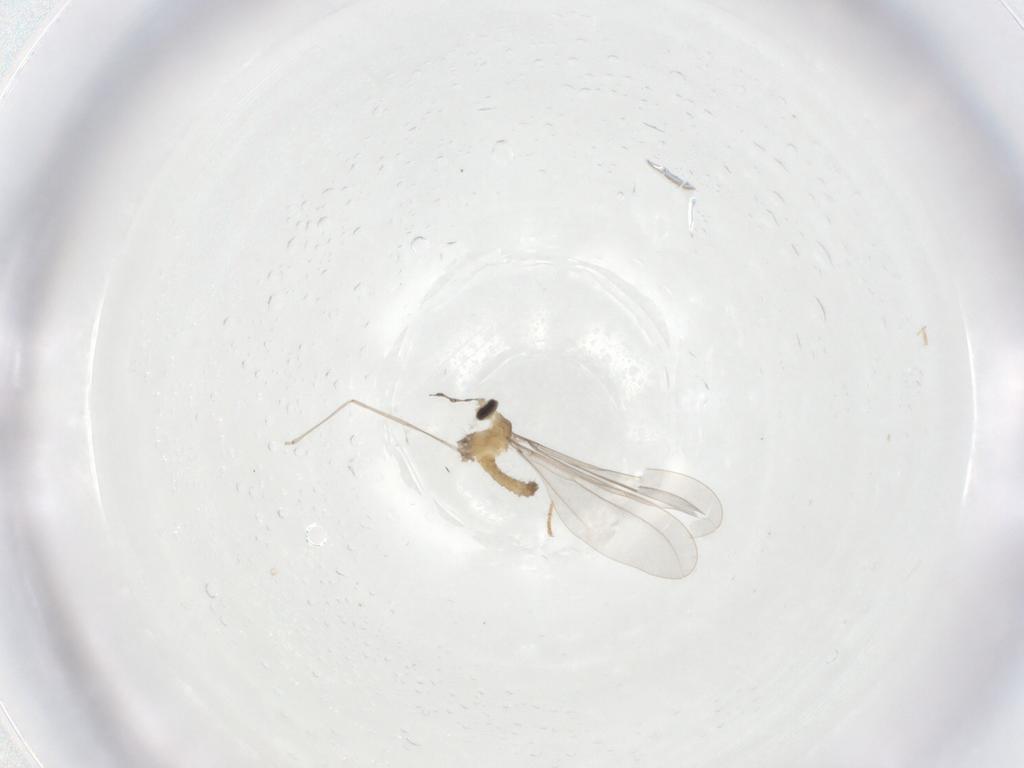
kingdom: Animalia
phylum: Arthropoda
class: Insecta
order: Diptera
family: Cecidomyiidae
